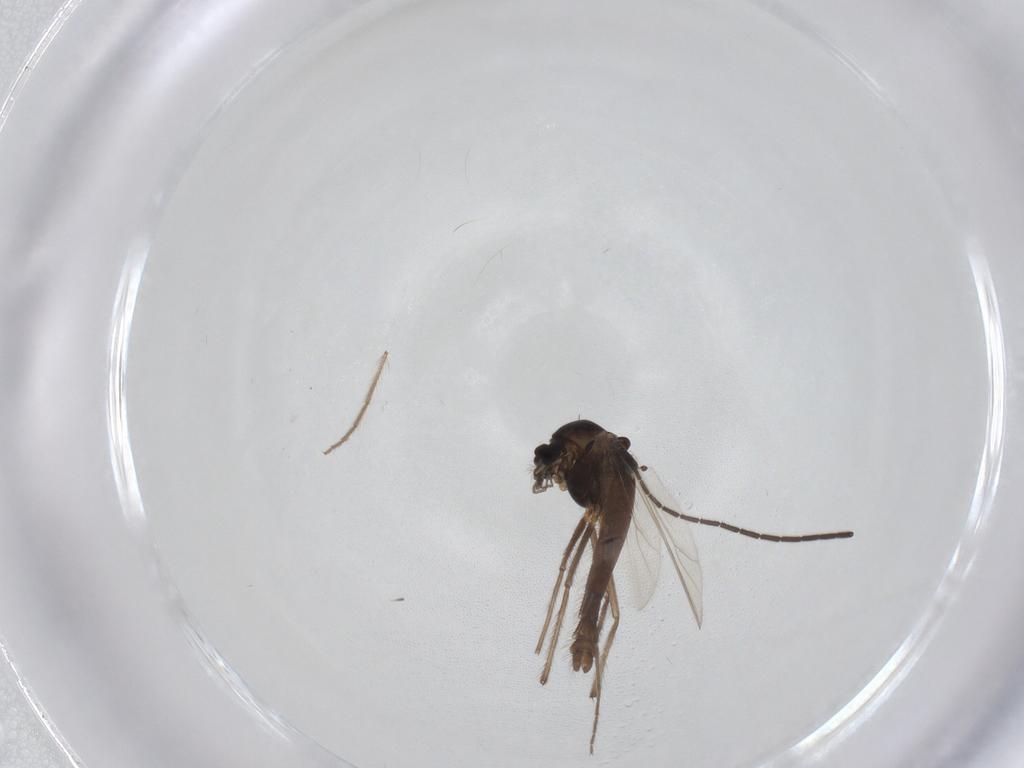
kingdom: Animalia
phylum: Arthropoda
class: Insecta
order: Diptera
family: Chironomidae
